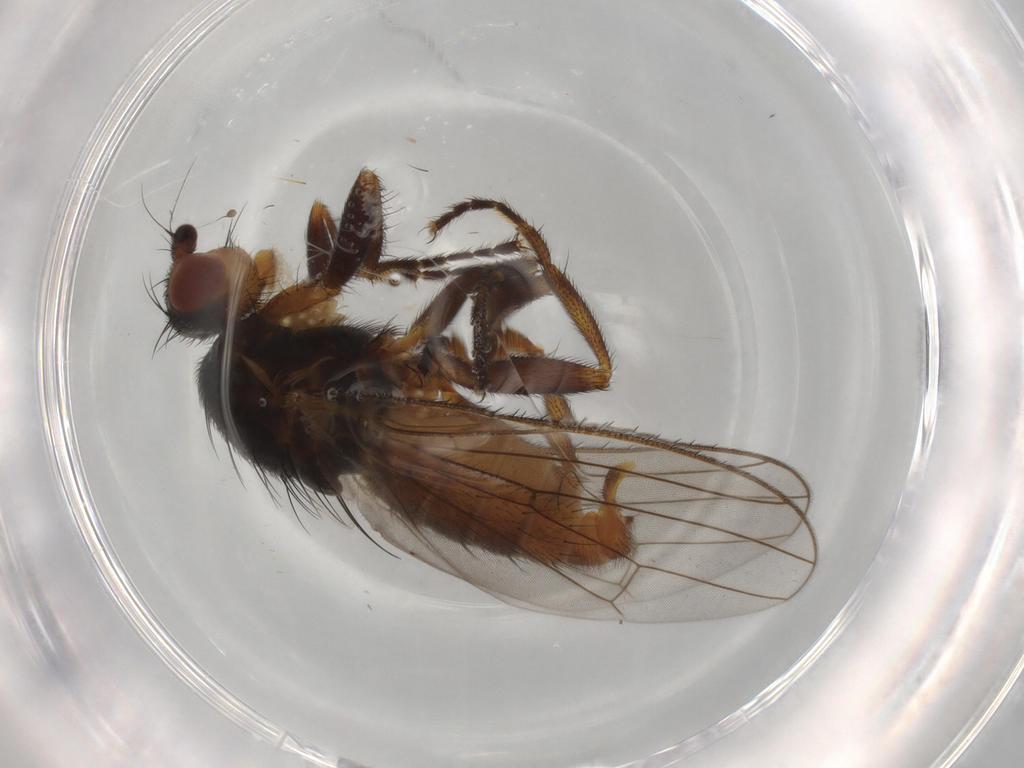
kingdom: Animalia
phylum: Arthropoda
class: Insecta
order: Diptera
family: Heleomyzidae
